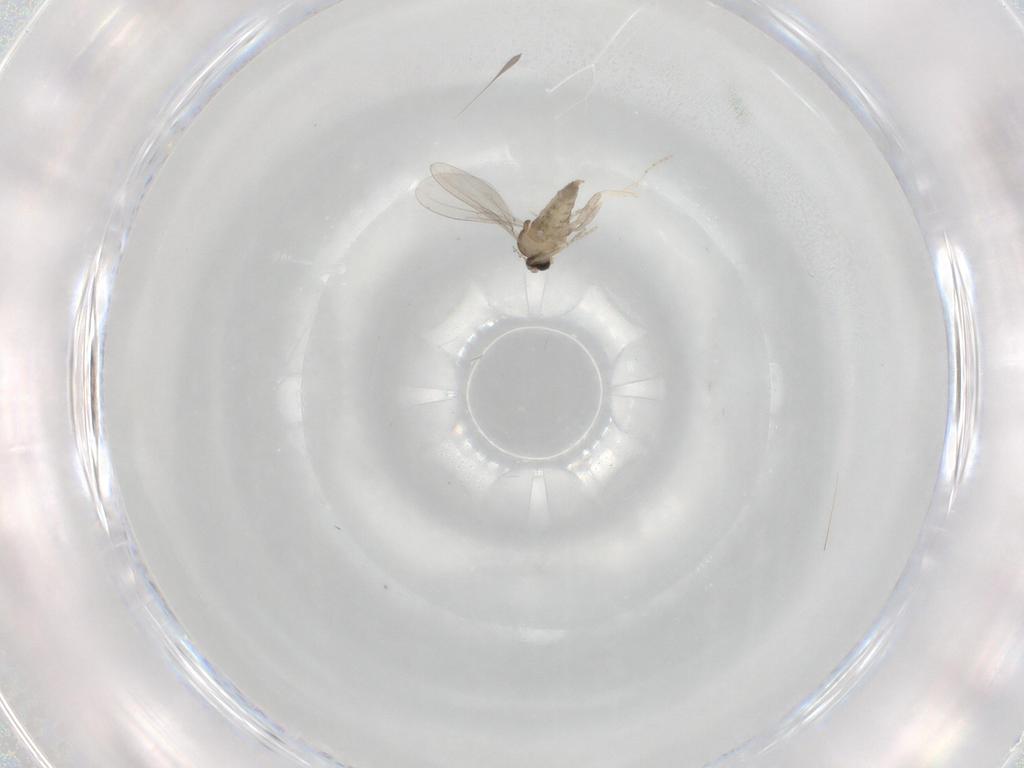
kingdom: Animalia
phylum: Arthropoda
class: Insecta
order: Diptera
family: Cecidomyiidae
